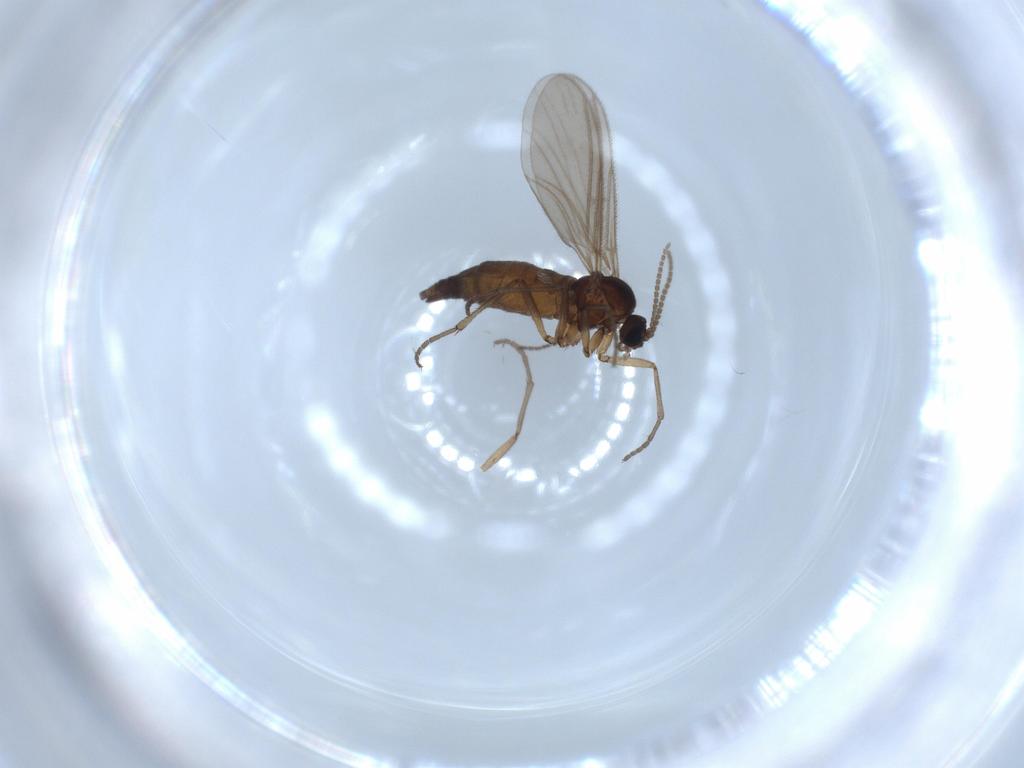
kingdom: Animalia
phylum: Arthropoda
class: Insecta
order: Diptera
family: Sciaridae
